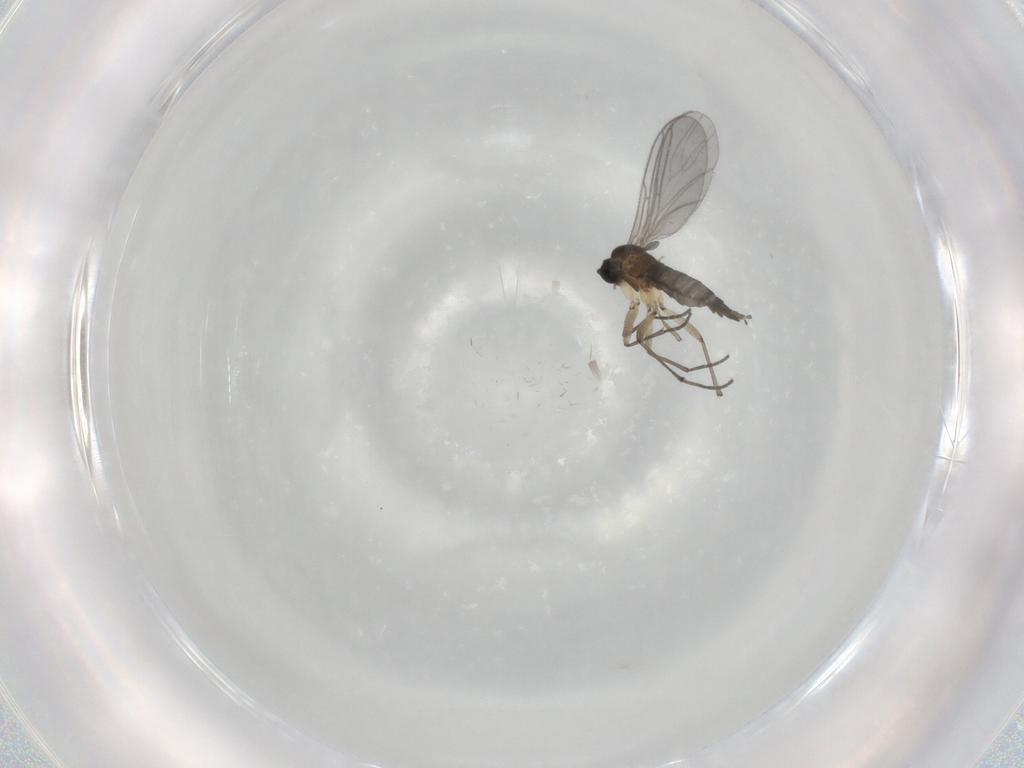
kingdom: Animalia
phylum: Arthropoda
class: Insecta
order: Diptera
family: Sciaridae
